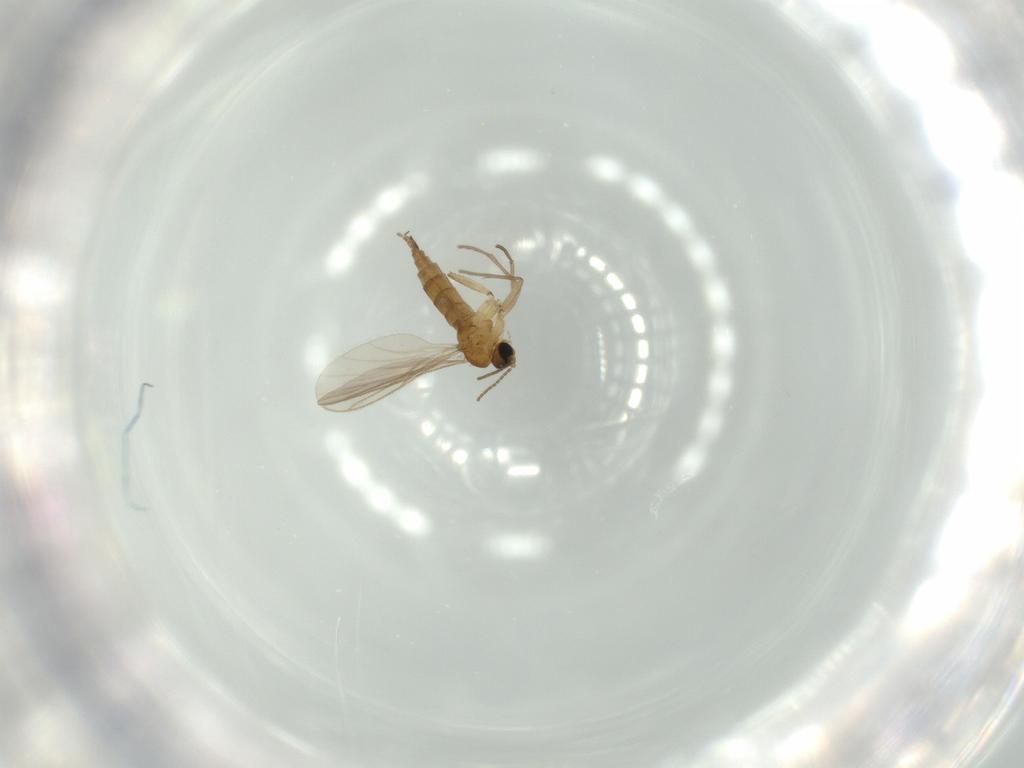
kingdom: Animalia
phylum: Arthropoda
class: Insecta
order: Diptera
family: Sciaridae
